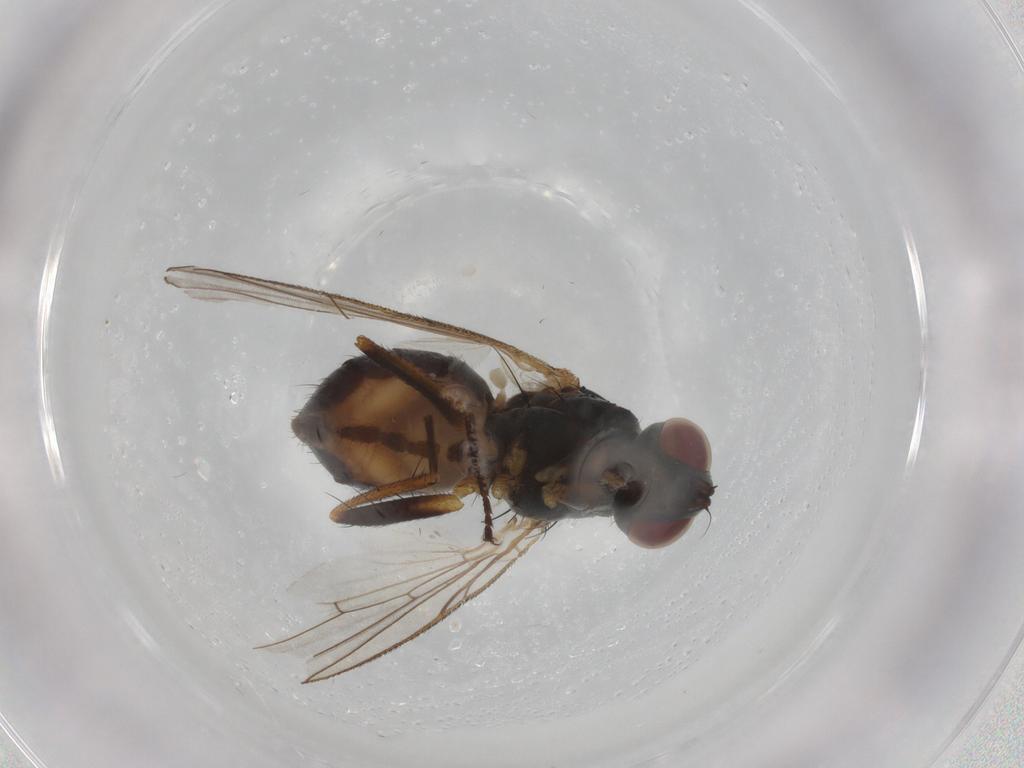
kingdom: Animalia
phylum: Arthropoda
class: Insecta
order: Diptera
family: Muscidae
